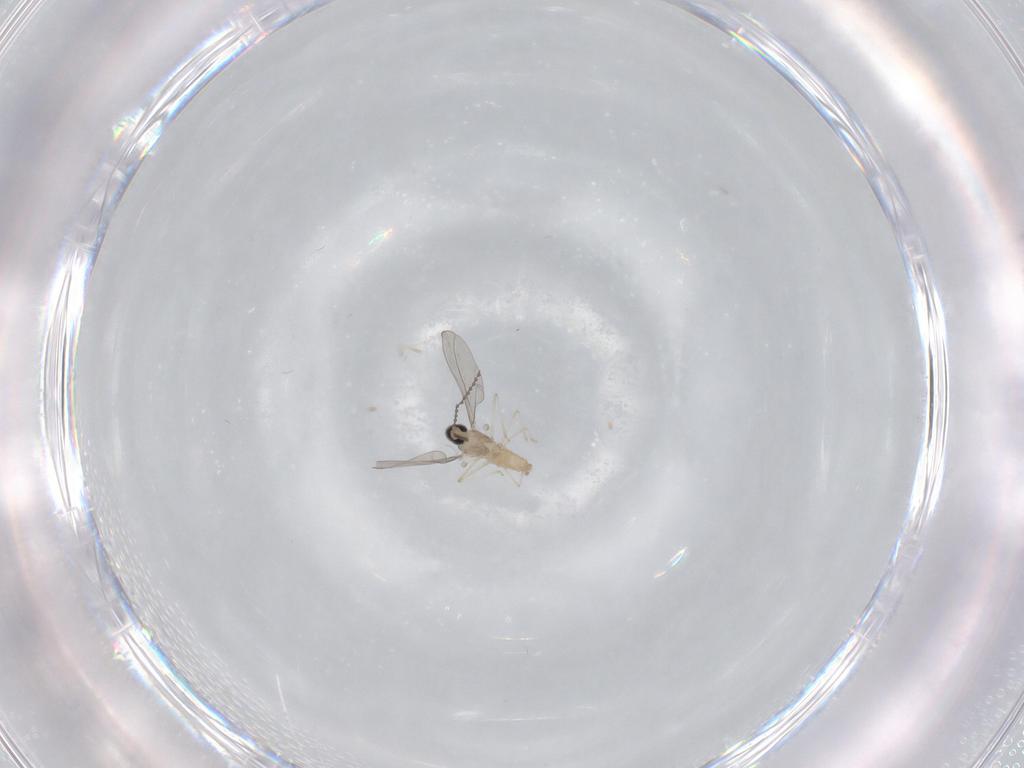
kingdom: Animalia
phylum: Arthropoda
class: Insecta
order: Diptera
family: Cecidomyiidae
